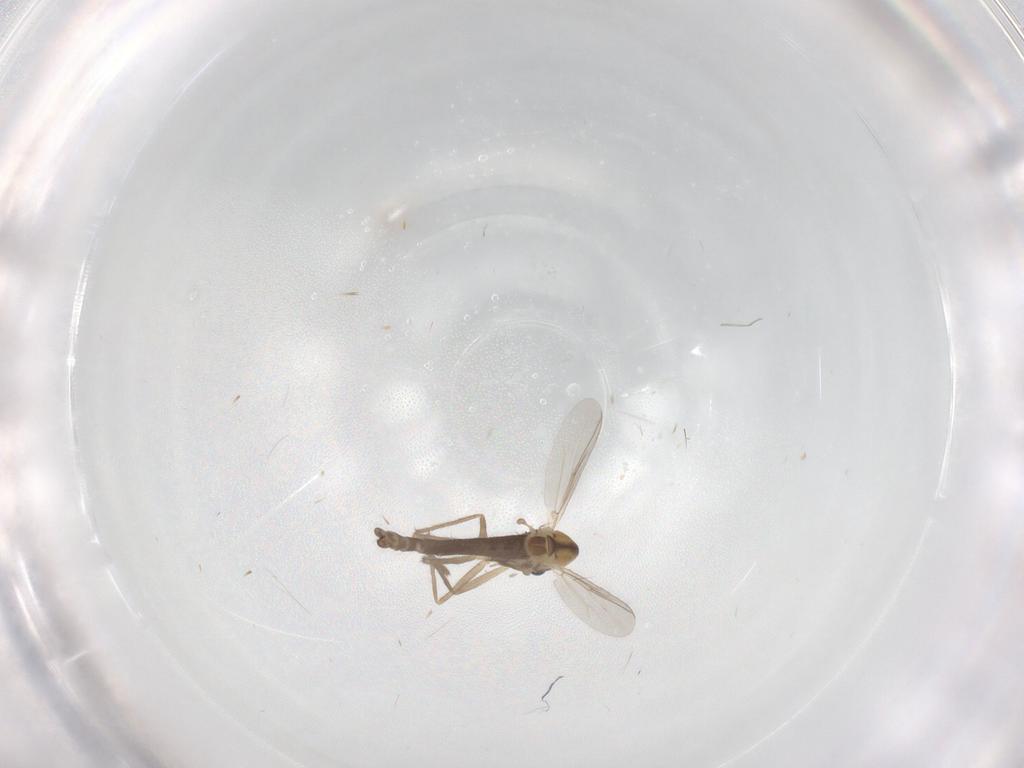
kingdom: Animalia
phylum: Arthropoda
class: Insecta
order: Diptera
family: Chironomidae
